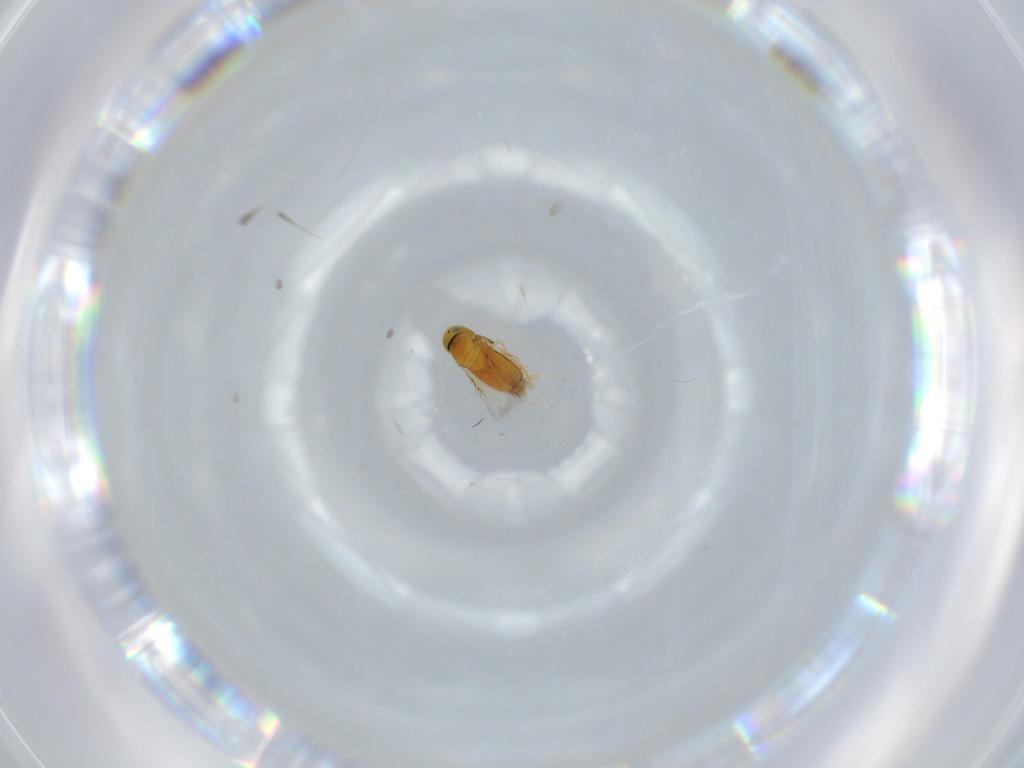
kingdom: Animalia
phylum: Arthropoda
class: Insecta
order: Hymenoptera
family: Signiphoridae
